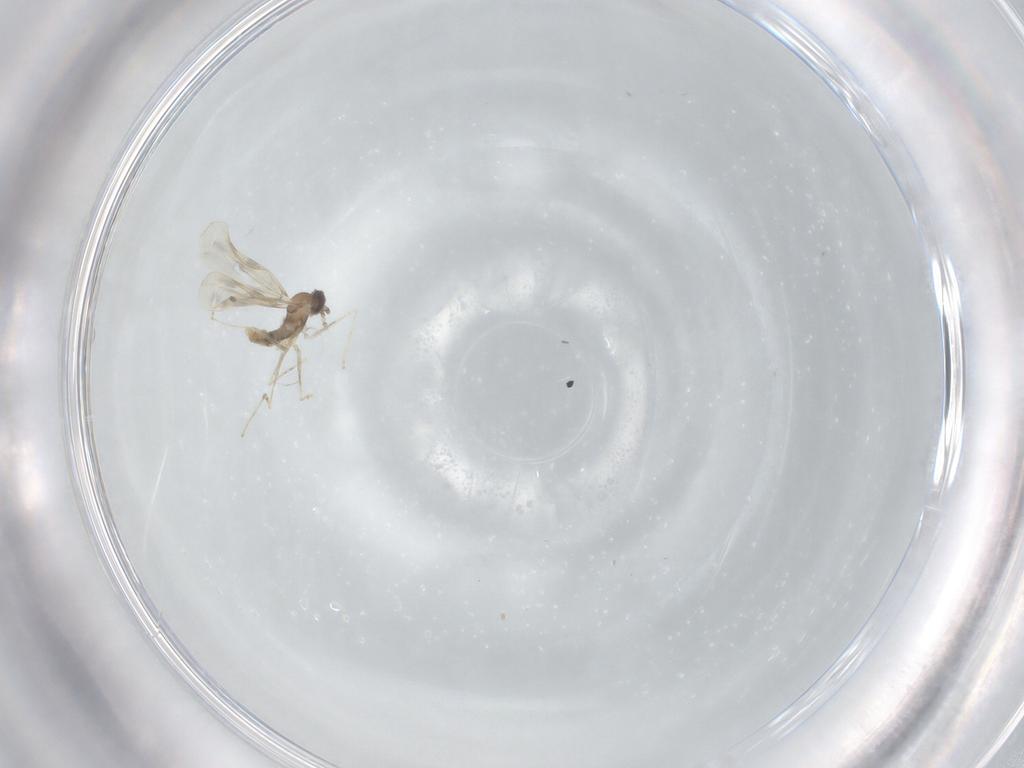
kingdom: Animalia
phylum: Arthropoda
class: Insecta
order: Diptera
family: Cecidomyiidae
